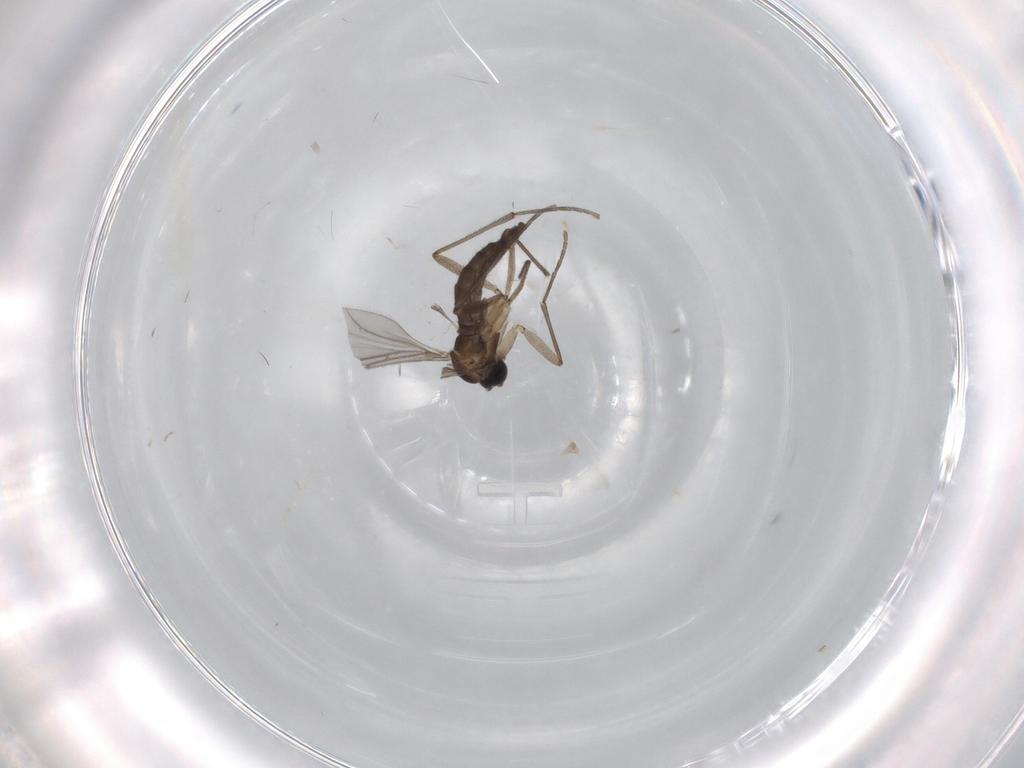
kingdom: Animalia
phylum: Arthropoda
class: Insecta
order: Diptera
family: Sciaridae
